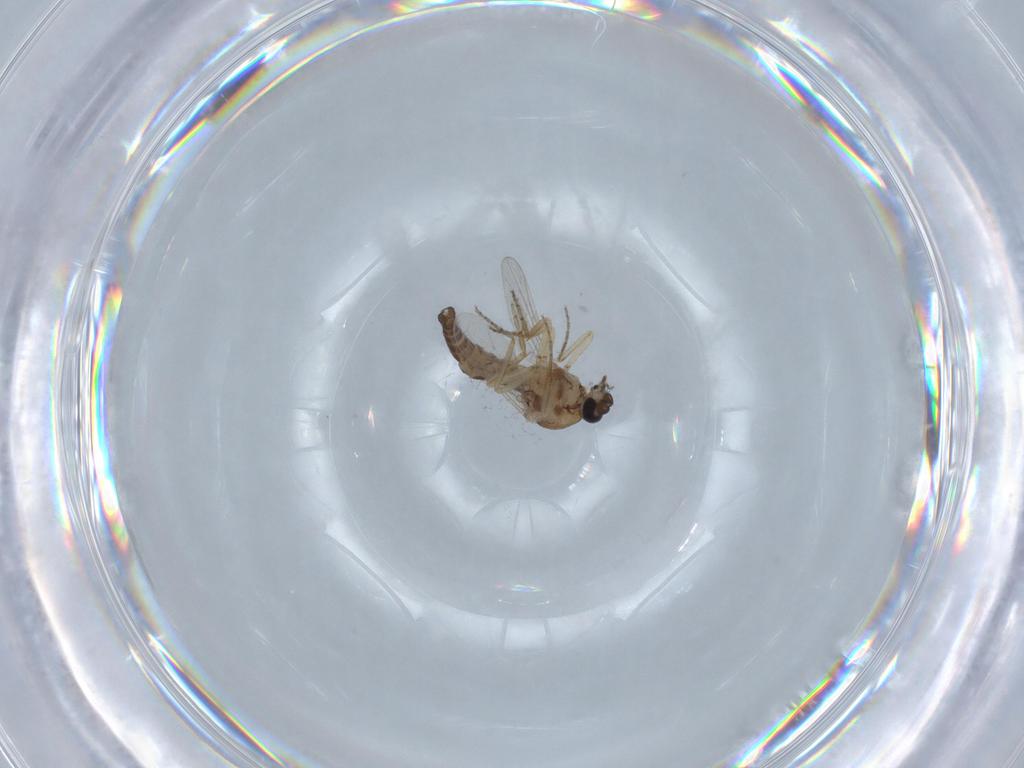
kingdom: Animalia
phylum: Arthropoda
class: Insecta
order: Diptera
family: Ceratopogonidae
